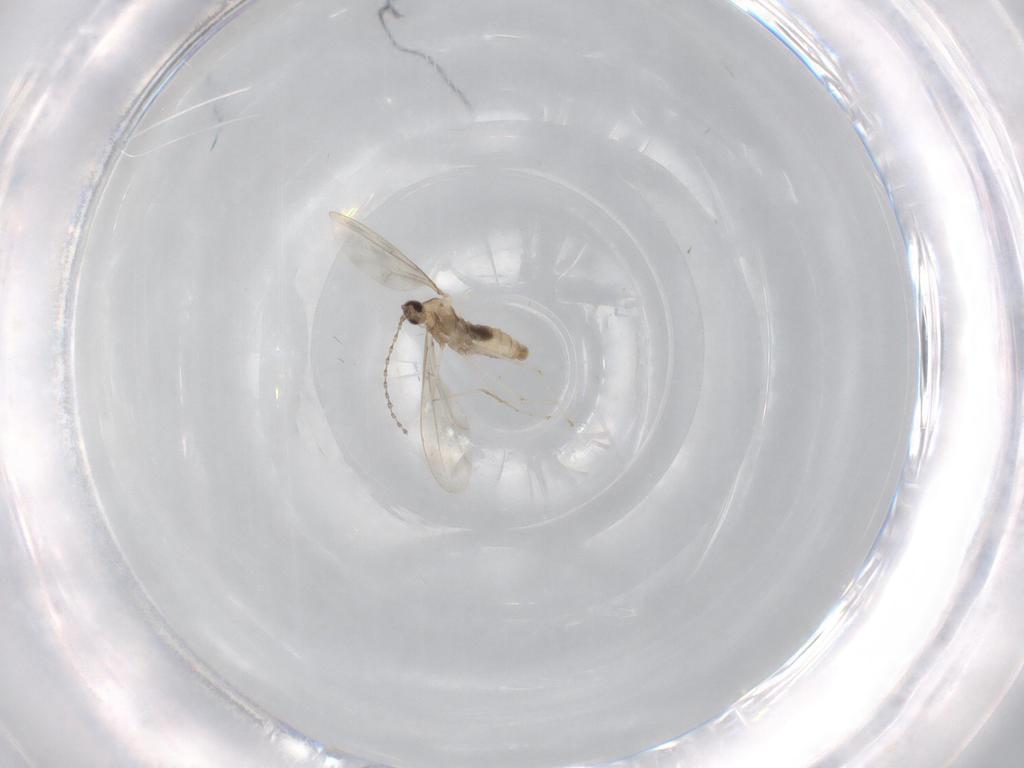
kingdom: Animalia
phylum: Arthropoda
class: Insecta
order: Diptera
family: Cecidomyiidae
